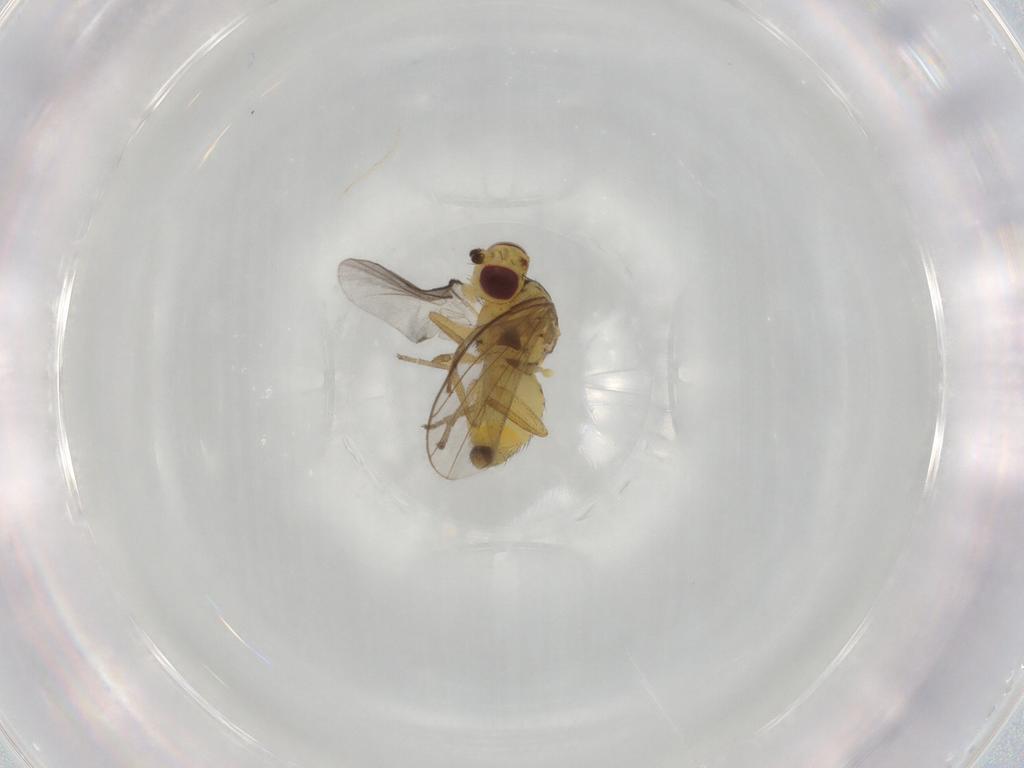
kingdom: Animalia
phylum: Arthropoda
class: Insecta
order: Diptera
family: Agromyzidae
